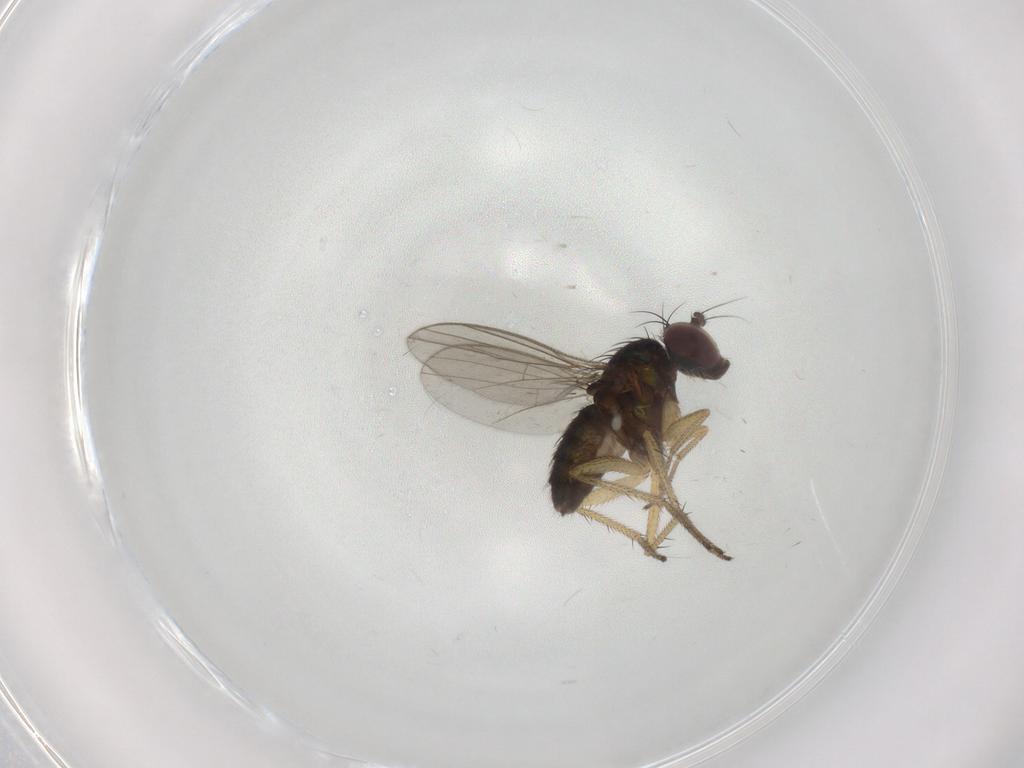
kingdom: Animalia
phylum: Arthropoda
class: Insecta
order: Diptera
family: Dolichopodidae
